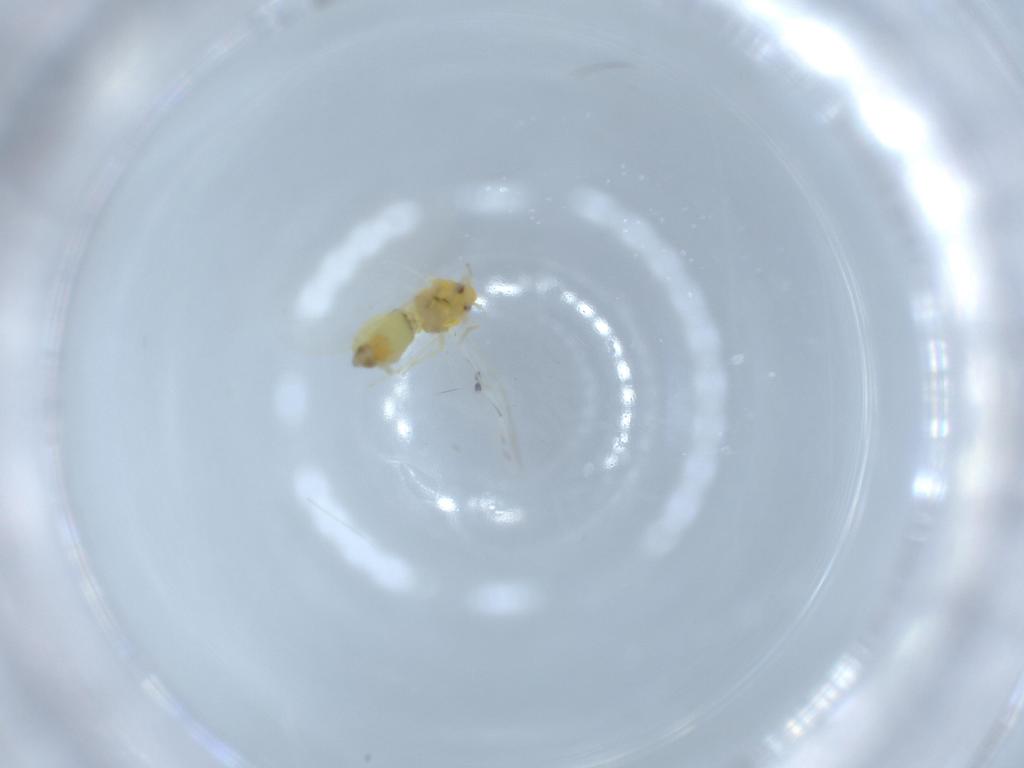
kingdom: Animalia
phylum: Arthropoda
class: Insecta
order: Hemiptera
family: Aleyrodidae
